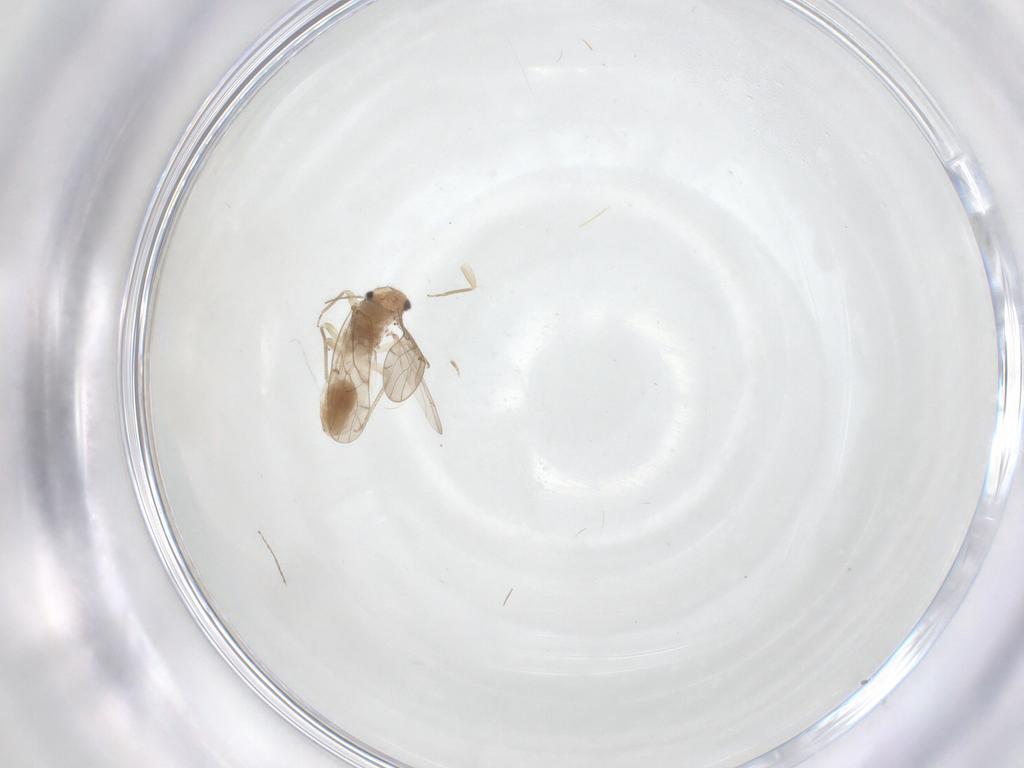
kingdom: Animalia
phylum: Arthropoda
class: Insecta
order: Psocodea
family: Ectopsocidae
